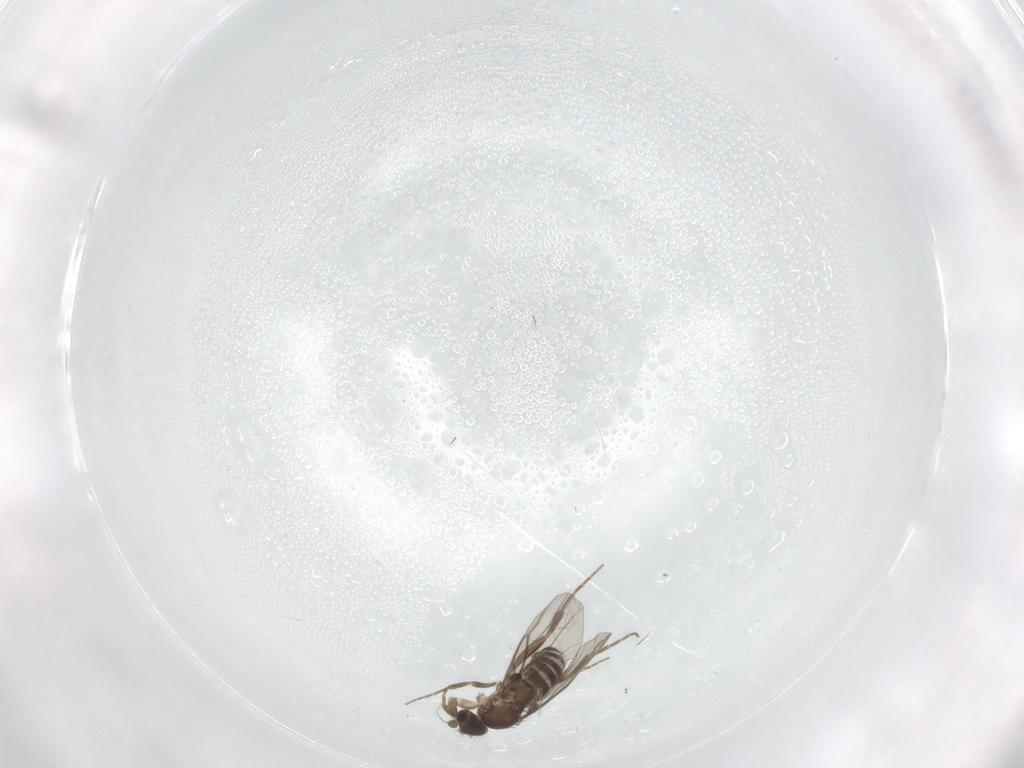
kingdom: Animalia
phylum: Arthropoda
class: Insecta
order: Diptera
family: Phoridae
